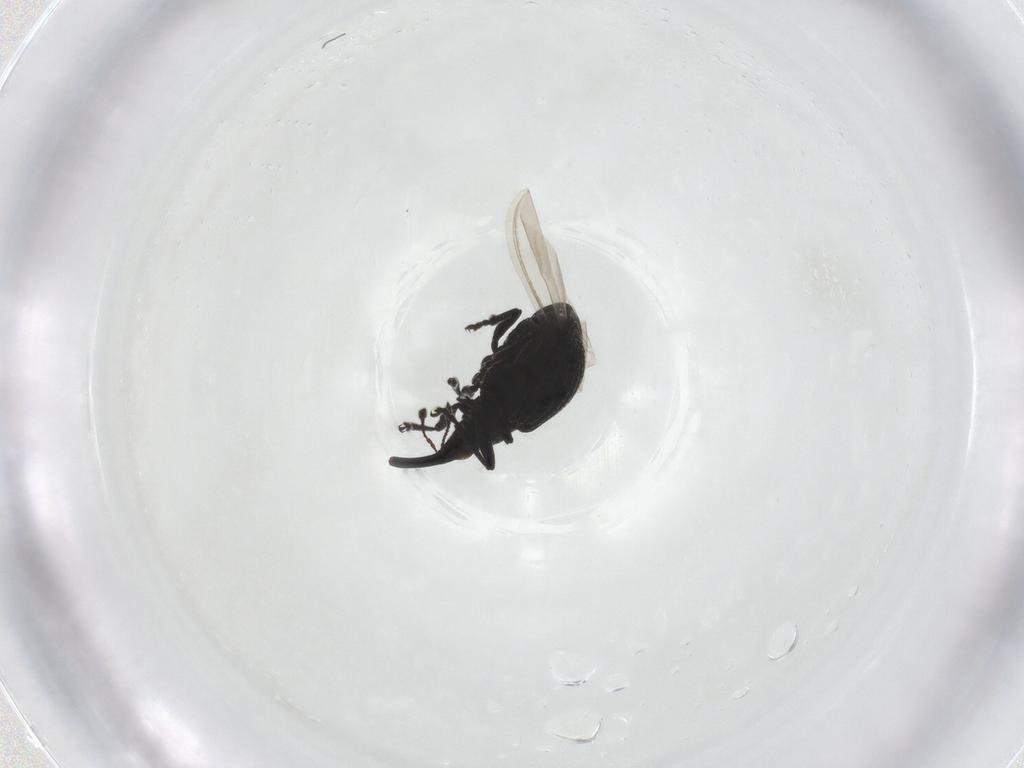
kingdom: Animalia
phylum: Arthropoda
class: Insecta
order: Coleoptera
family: Brentidae
